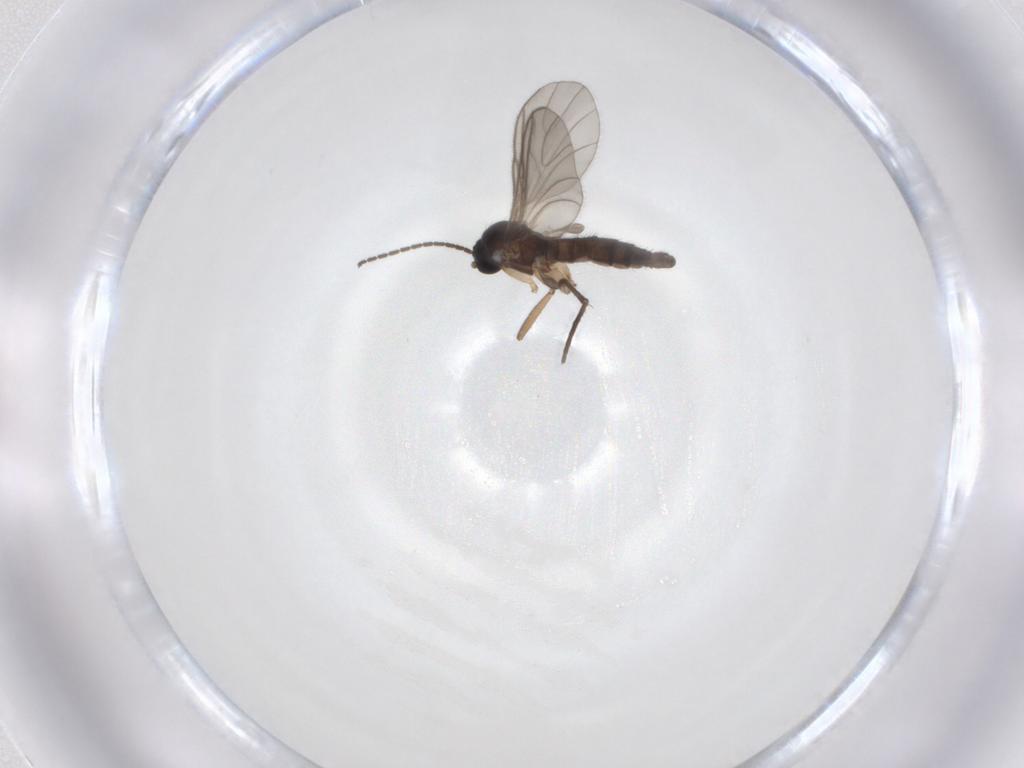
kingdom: Animalia
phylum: Arthropoda
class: Insecta
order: Diptera
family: Sciaridae
